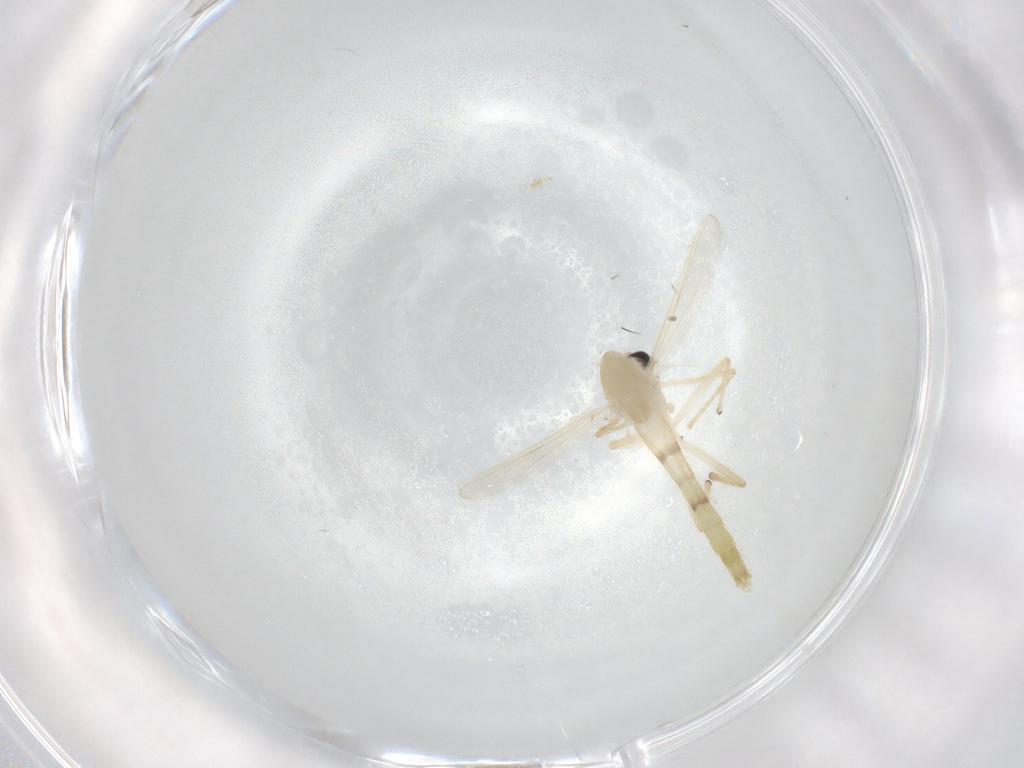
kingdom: Animalia
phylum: Arthropoda
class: Insecta
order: Diptera
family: Chironomidae
